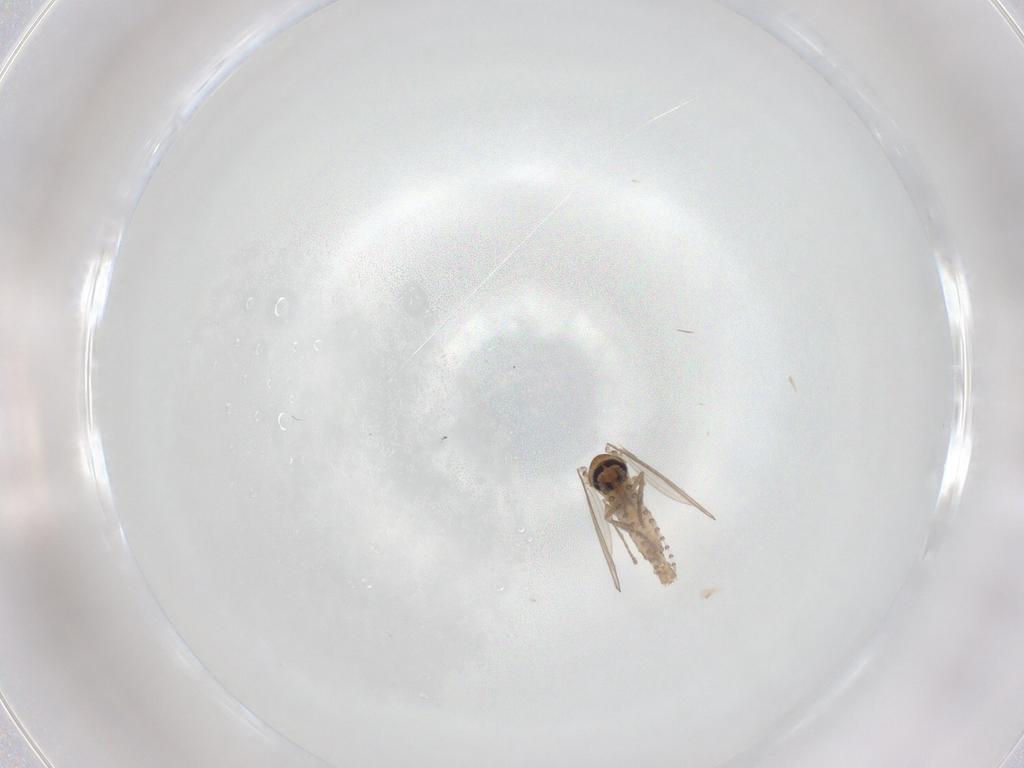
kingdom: Animalia
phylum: Arthropoda
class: Insecta
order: Diptera
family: Psychodidae
